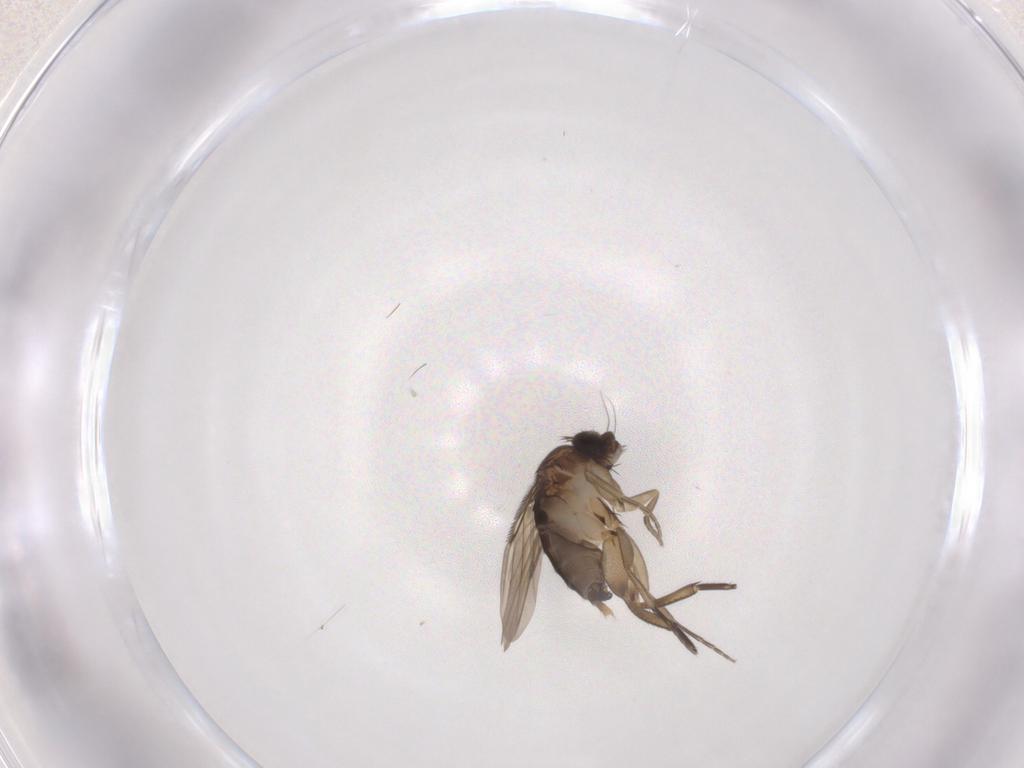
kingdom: Animalia
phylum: Arthropoda
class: Insecta
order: Diptera
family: Phoridae
